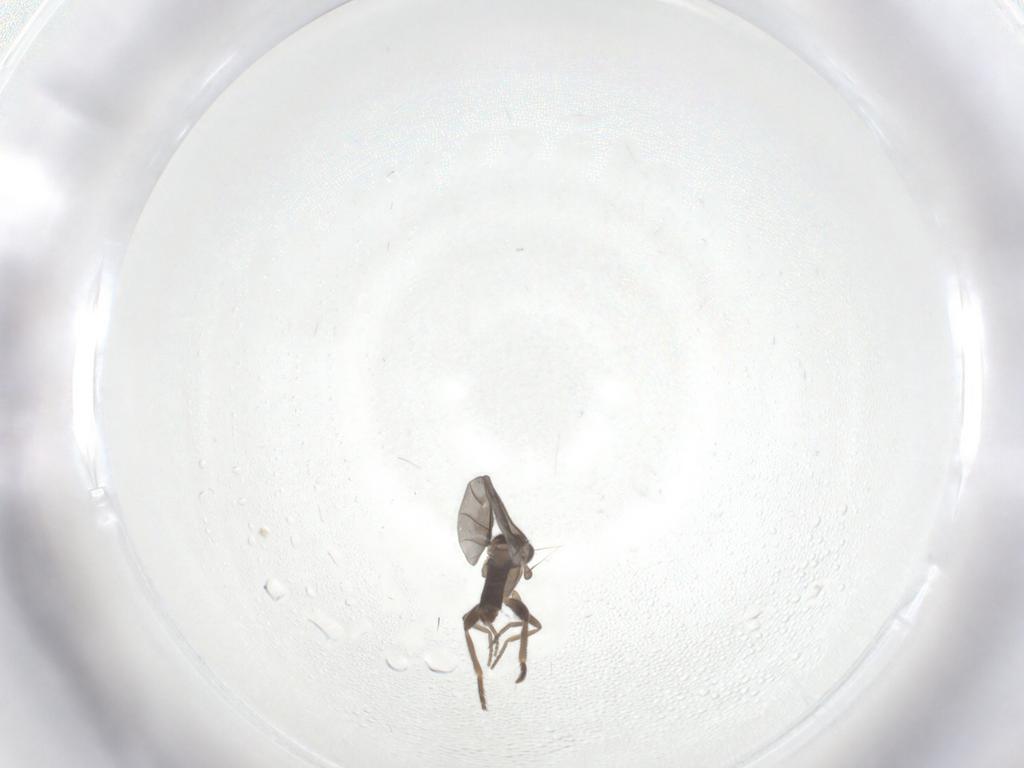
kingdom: Animalia
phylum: Arthropoda
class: Insecta
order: Diptera
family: Dolichopodidae
